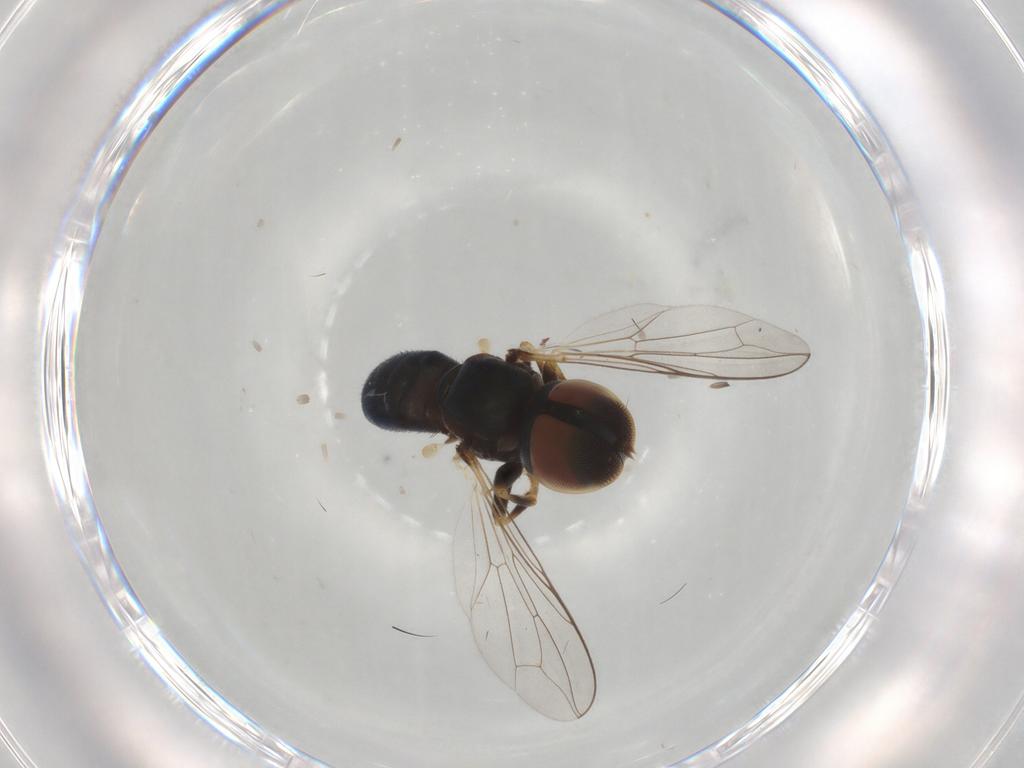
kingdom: Animalia
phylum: Arthropoda
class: Insecta
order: Diptera
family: Pipunculidae
